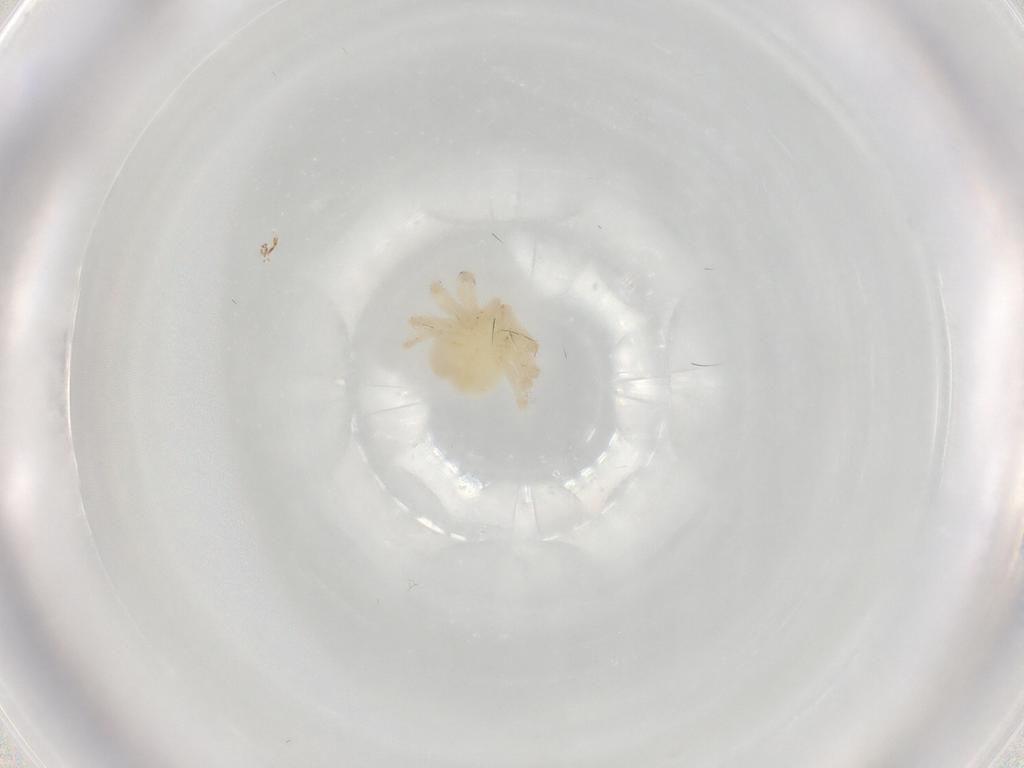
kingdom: Animalia
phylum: Arthropoda
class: Arachnida
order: Trombidiformes
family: Anystidae
